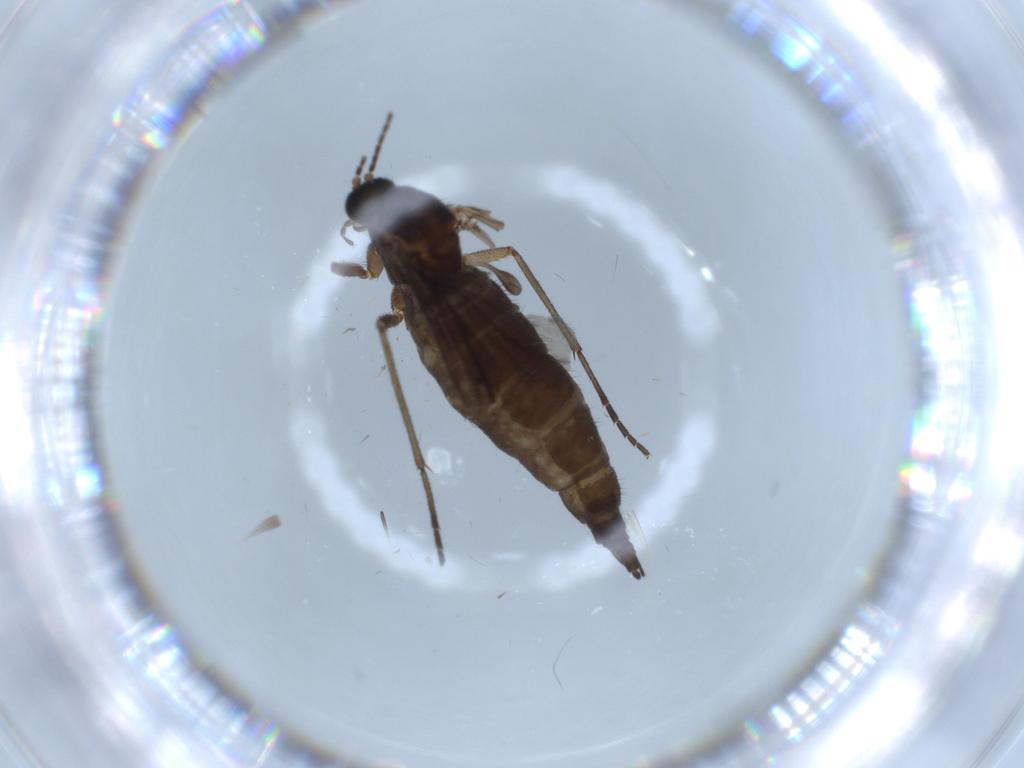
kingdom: Animalia
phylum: Arthropoda
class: Insecta
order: Diptera
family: Sciaridae
